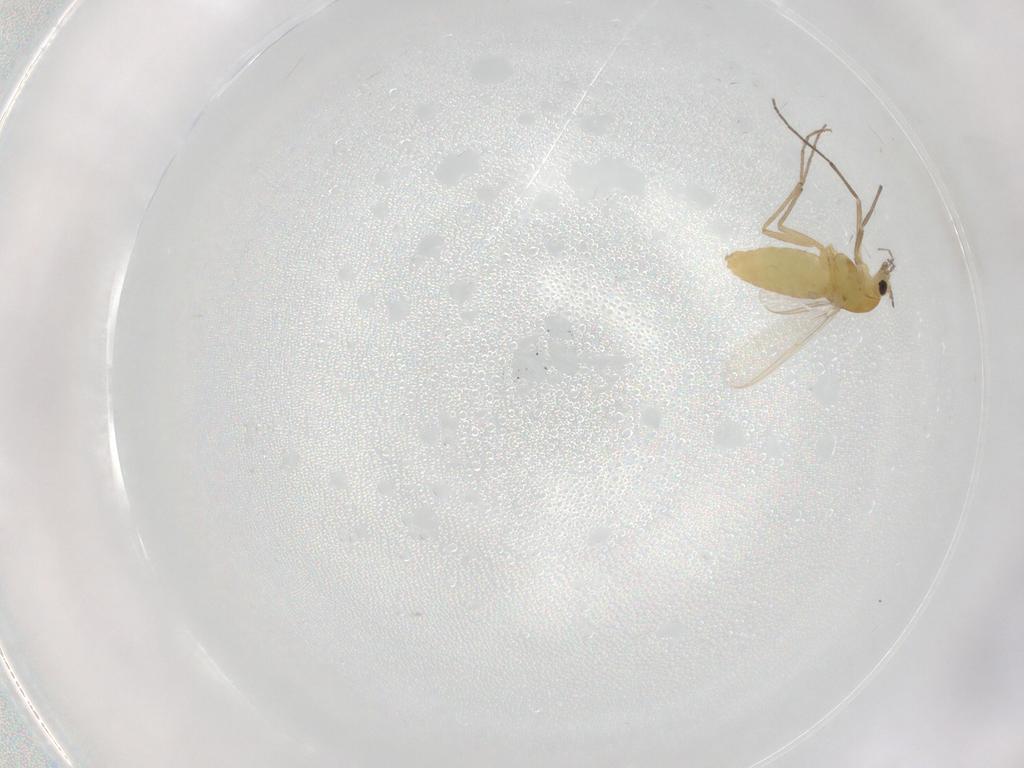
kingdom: Animalia
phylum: Arthropoda
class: Insecta
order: Diptera
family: Chironomidae
